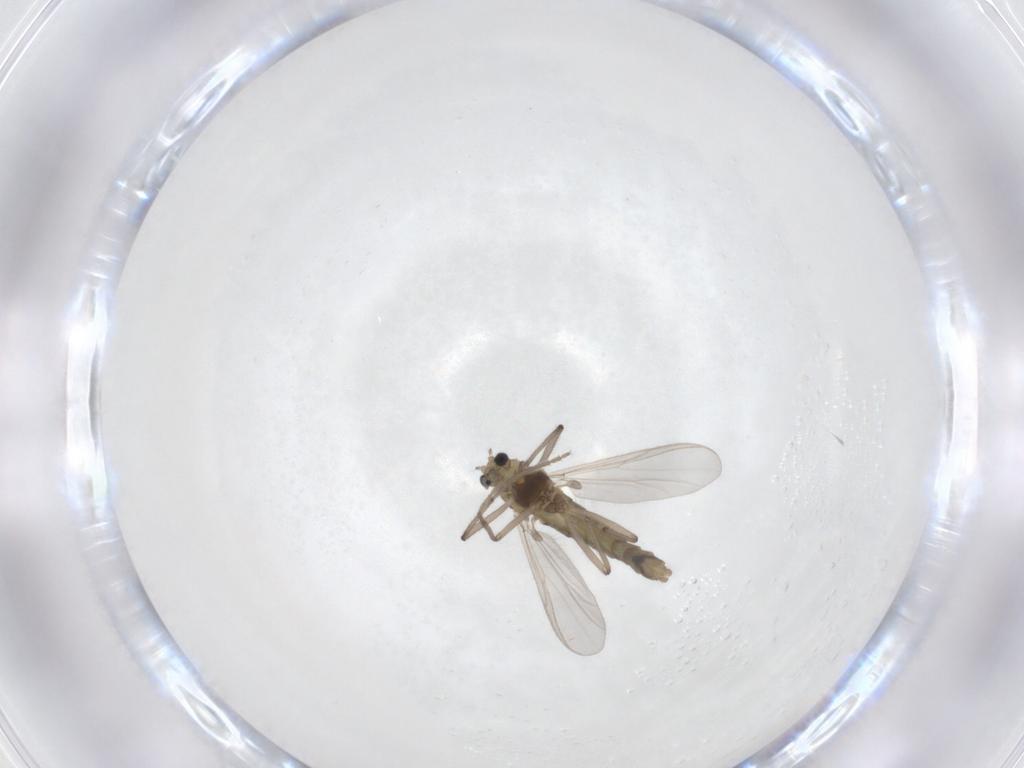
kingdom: Animalia
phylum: Arthropoda
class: Insecta
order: Diptera
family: Chironomidae
